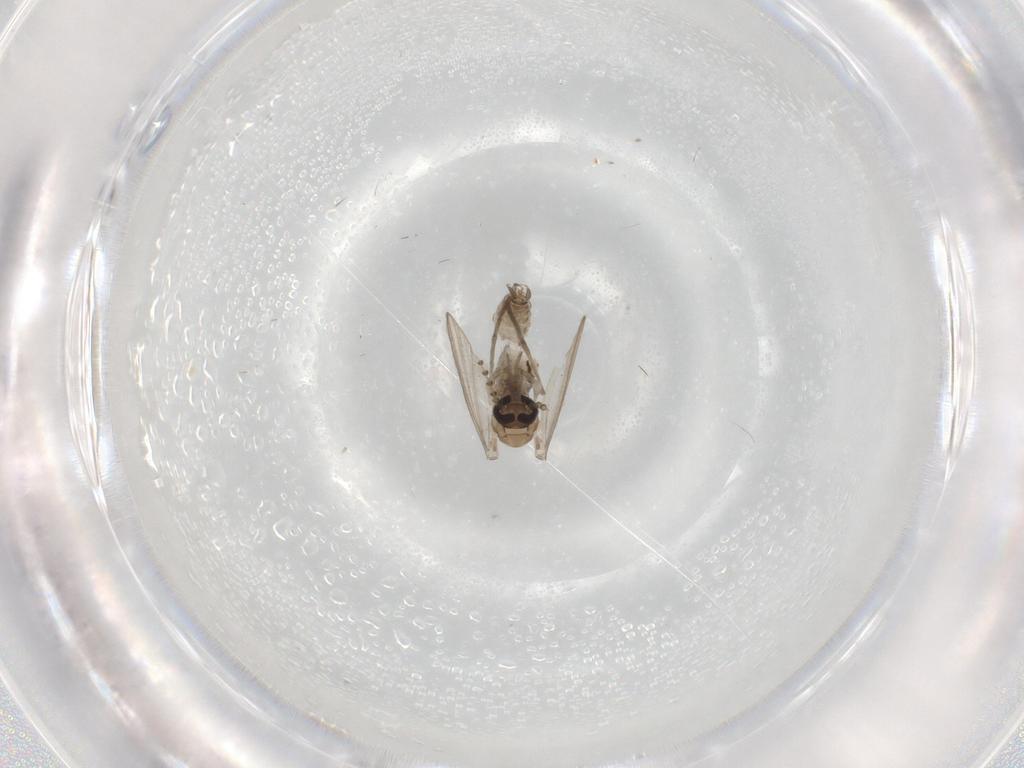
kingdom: Animalia
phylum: Arthropoda
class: Insecta
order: Diptera
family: Psychodidae
